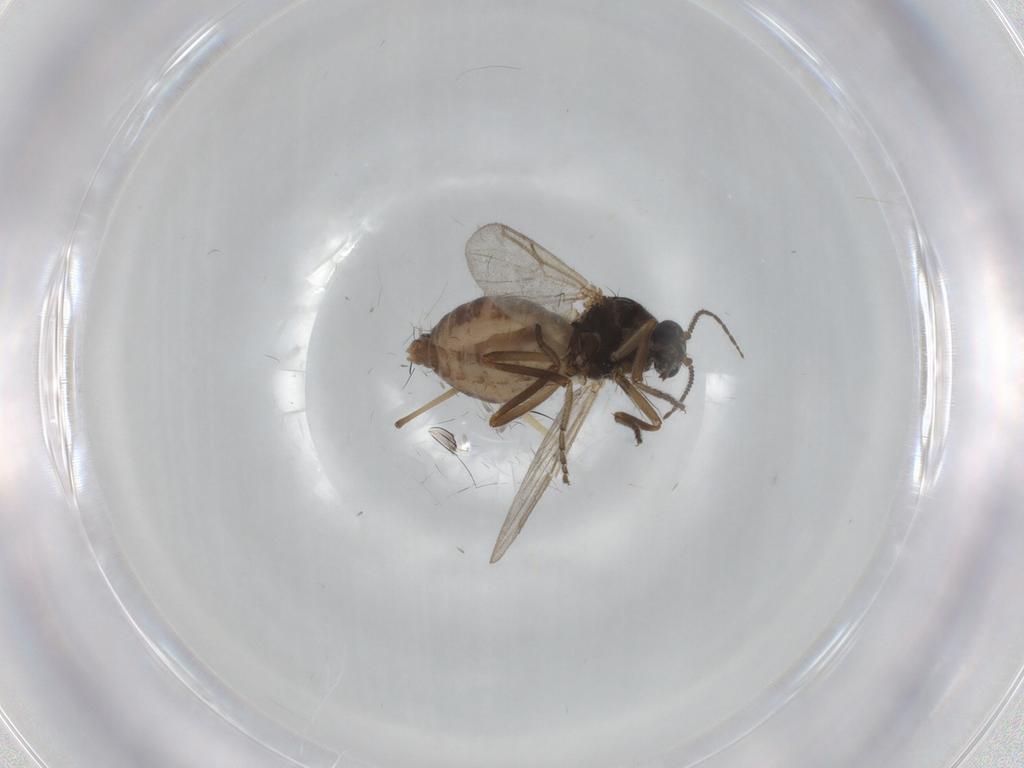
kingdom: Animalia
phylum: Arthropoda
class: Insecta
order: Diptera
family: Ceratopogonidae
